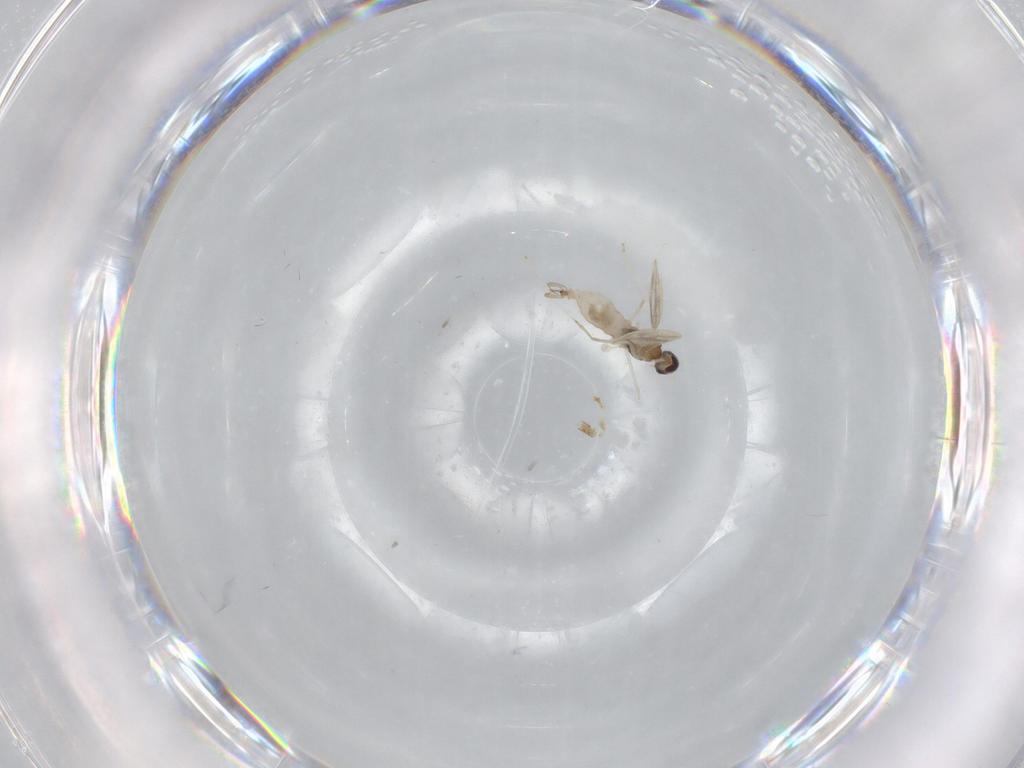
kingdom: Animalia
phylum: Arthropoda
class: Insecta
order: Diptera
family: Cecidomyiidae
